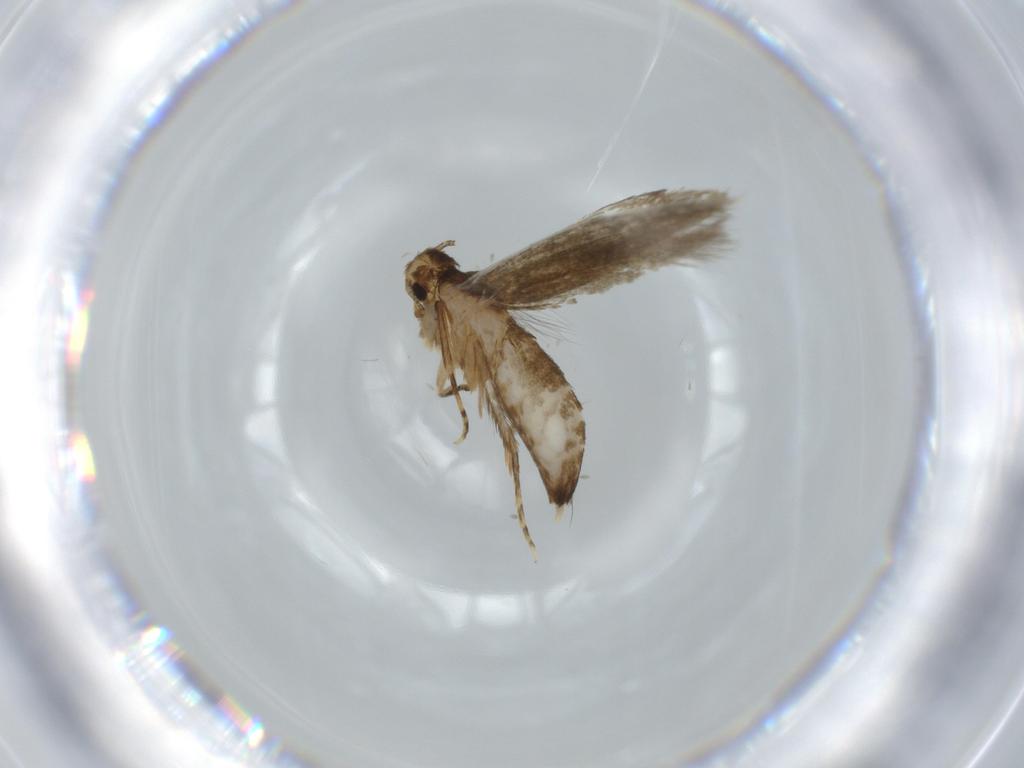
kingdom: Animalia
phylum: Arthropoda
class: Insecta
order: Lepidoptera
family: Tineidae
